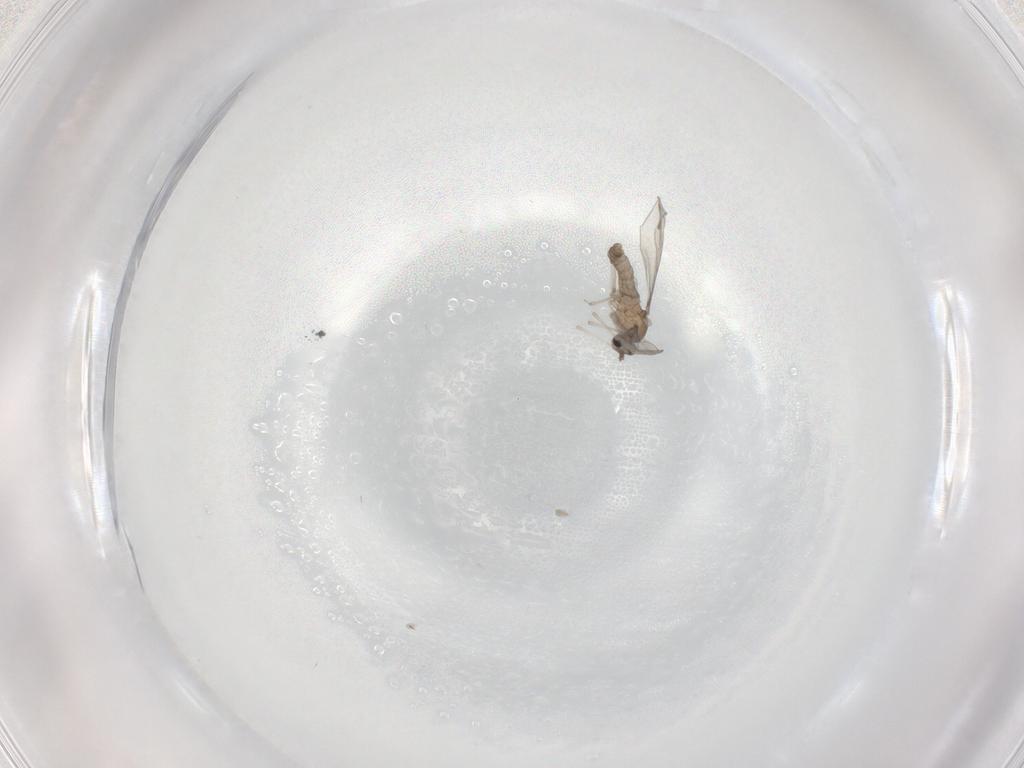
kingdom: Animalia
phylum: Arthropoda
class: Insecta
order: Diptera
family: Cecidomyiidae
